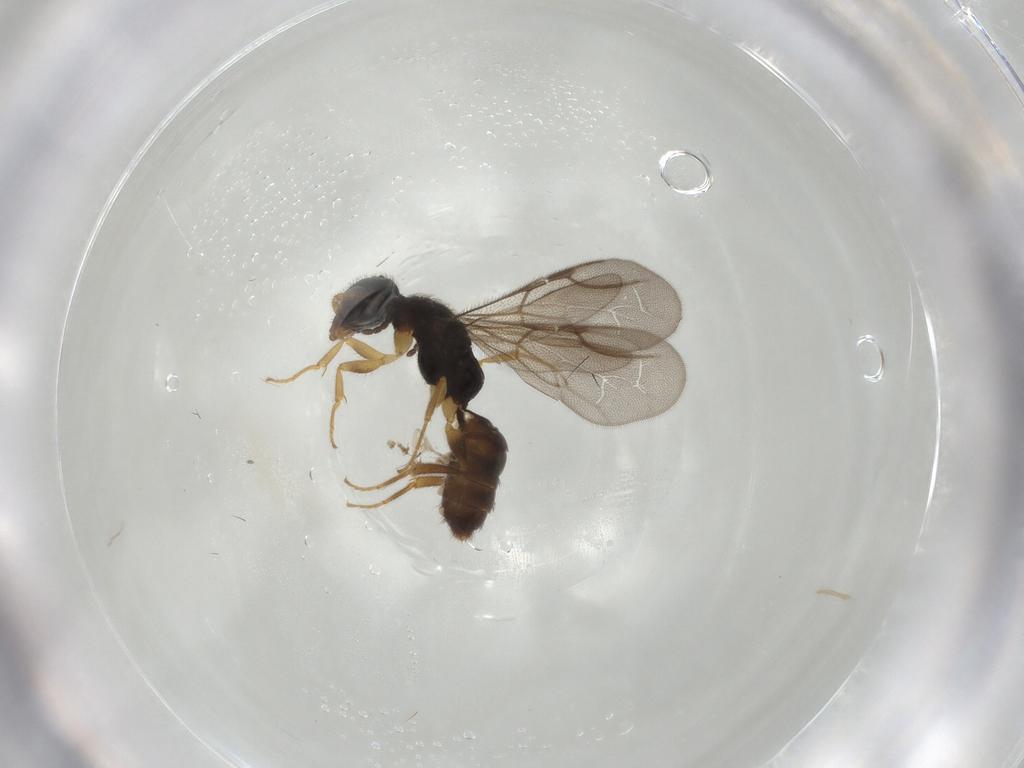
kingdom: Animalia
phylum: Arthropoda
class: Insecta
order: Hymenoptera
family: Bethylidae
